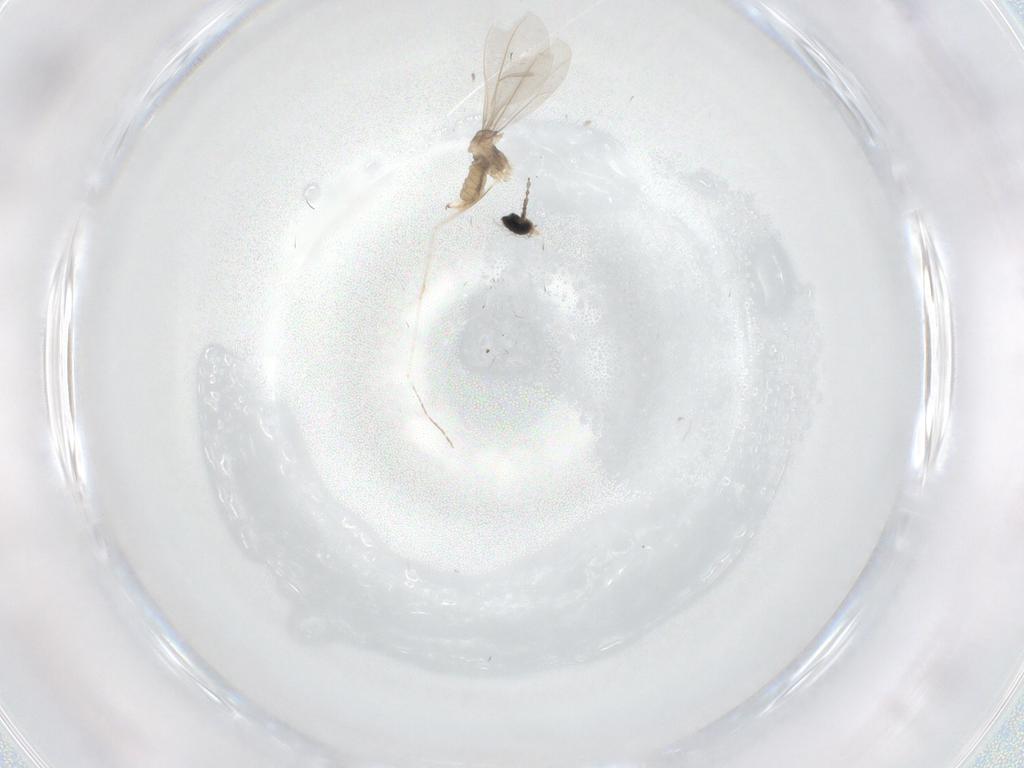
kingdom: Animalia
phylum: Arthropoda
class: Insecta
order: Diptera
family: Cecidomyiidae
